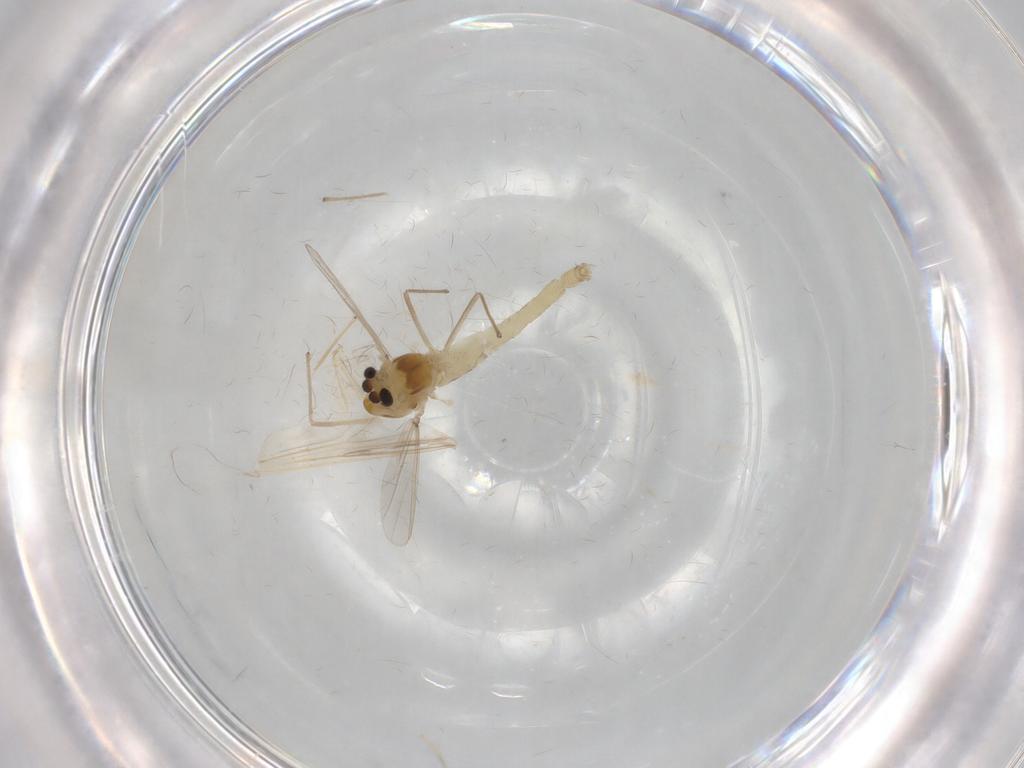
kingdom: Animalia
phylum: Arthropoda
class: Insecta
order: Diptera
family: Chironomidae
